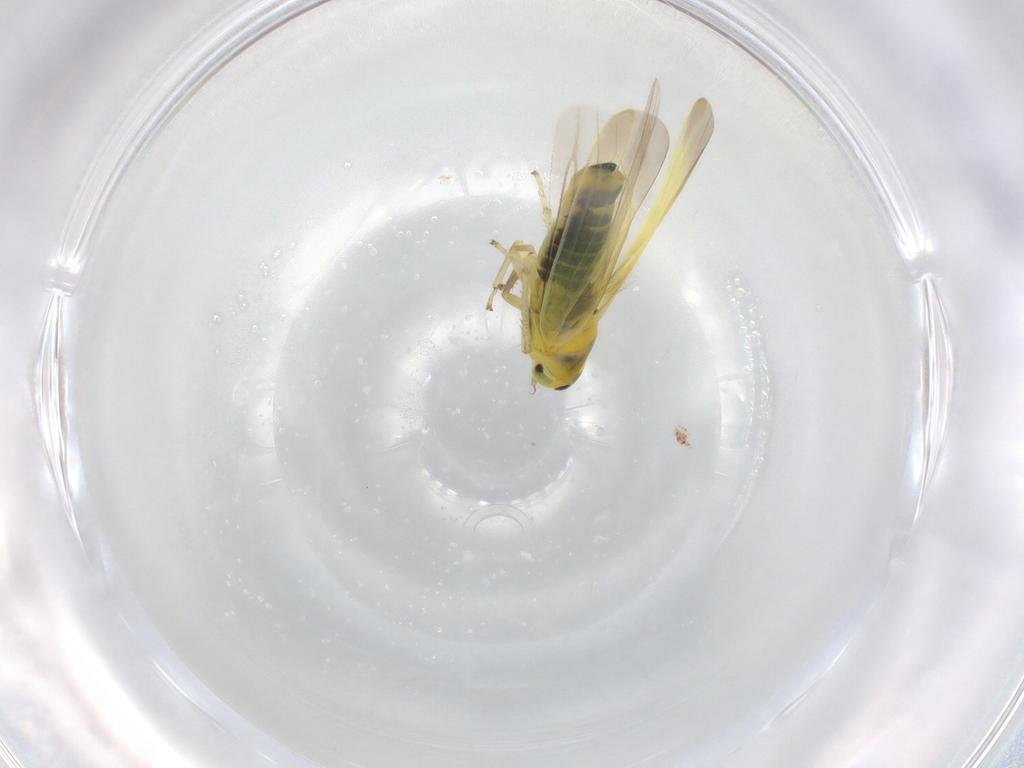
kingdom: Animalia
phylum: Arthropoda
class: Insecta
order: Hemiptera
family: Cicadellidae
